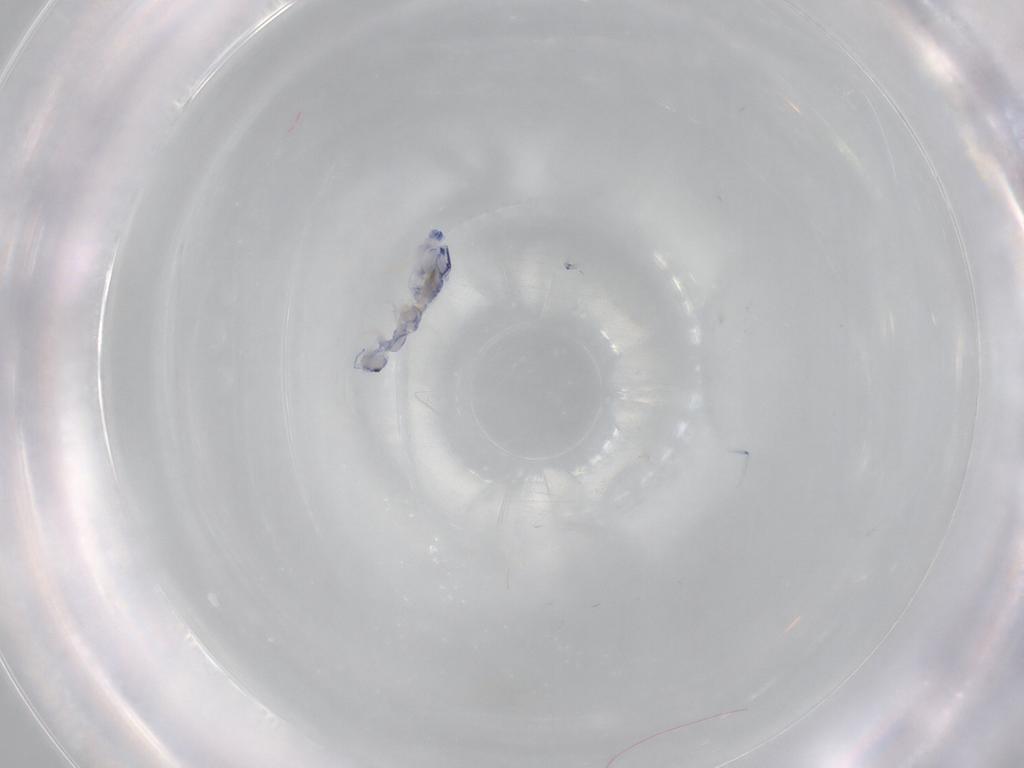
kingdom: Animalia
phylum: Arthropoda
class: Collembola
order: Entomobryomorpha
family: Entomobryidae
